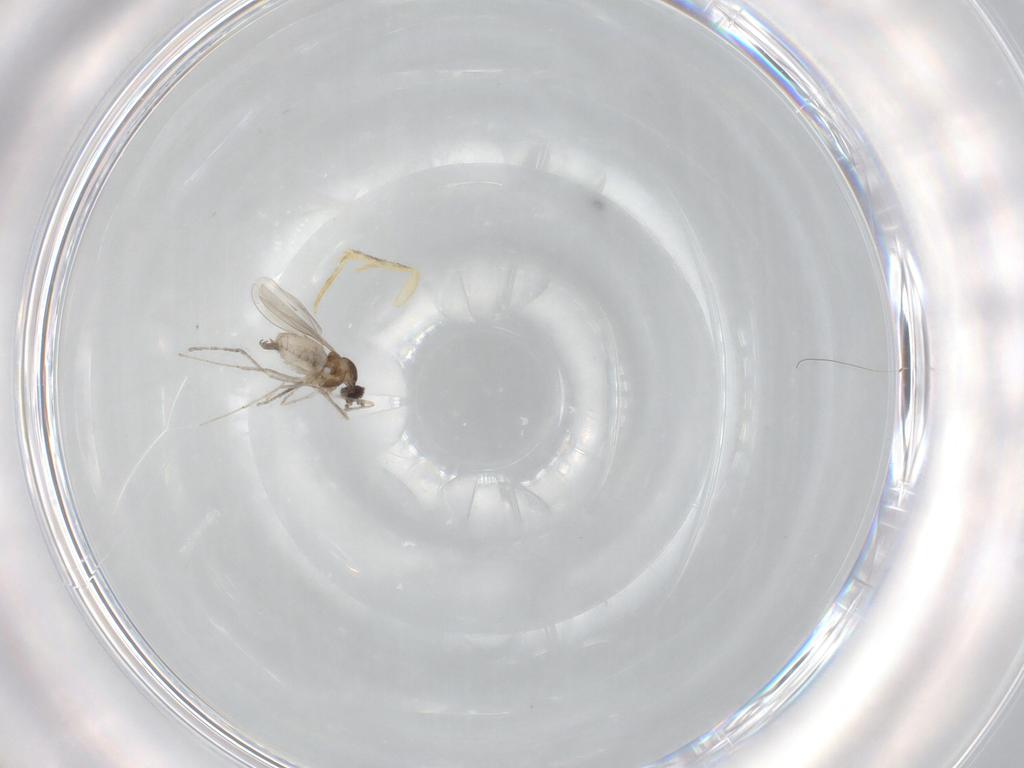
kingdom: Animalia
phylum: Arthropoda
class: Insecta
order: Diptera
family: Cecidomyiidae
